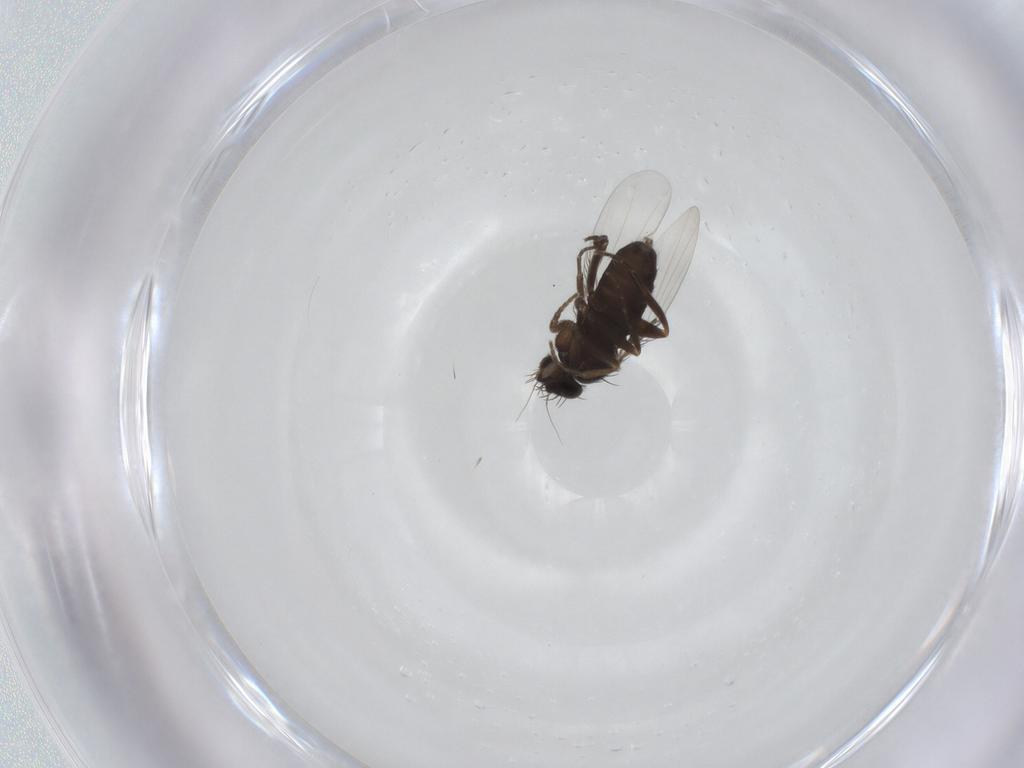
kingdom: Animalia
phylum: Arthropoda
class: Insecta
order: Diptera
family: Phoridae
